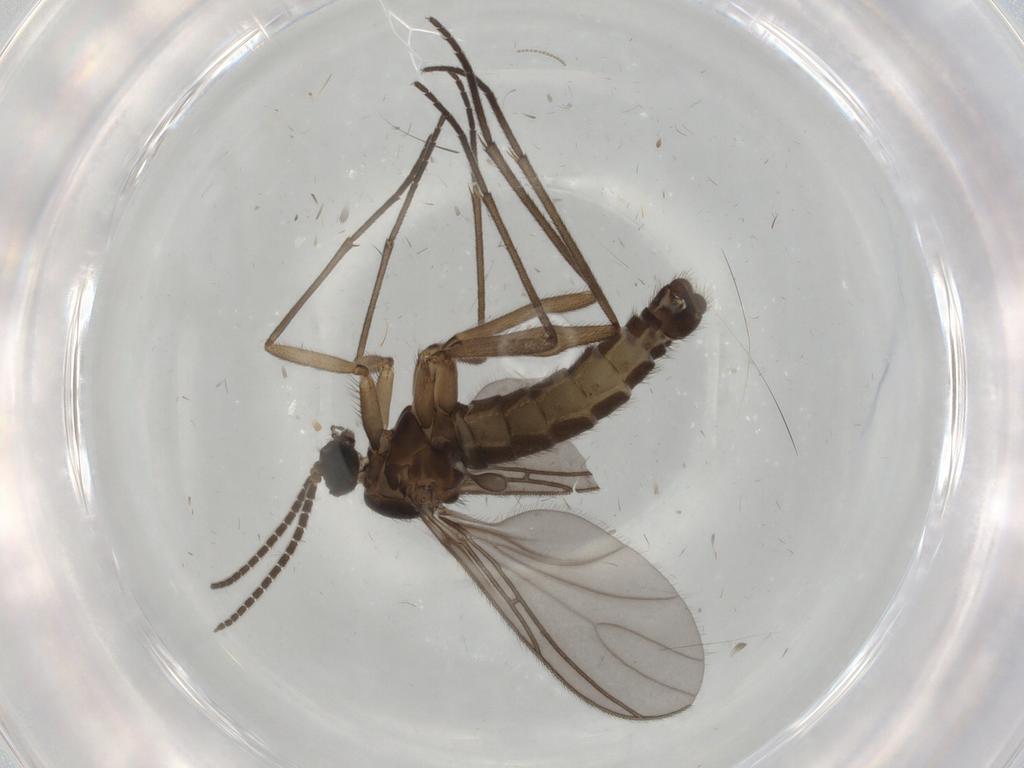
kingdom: Animalia
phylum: Arthropoda
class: Insecta
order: Diptera
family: Sciaridae
